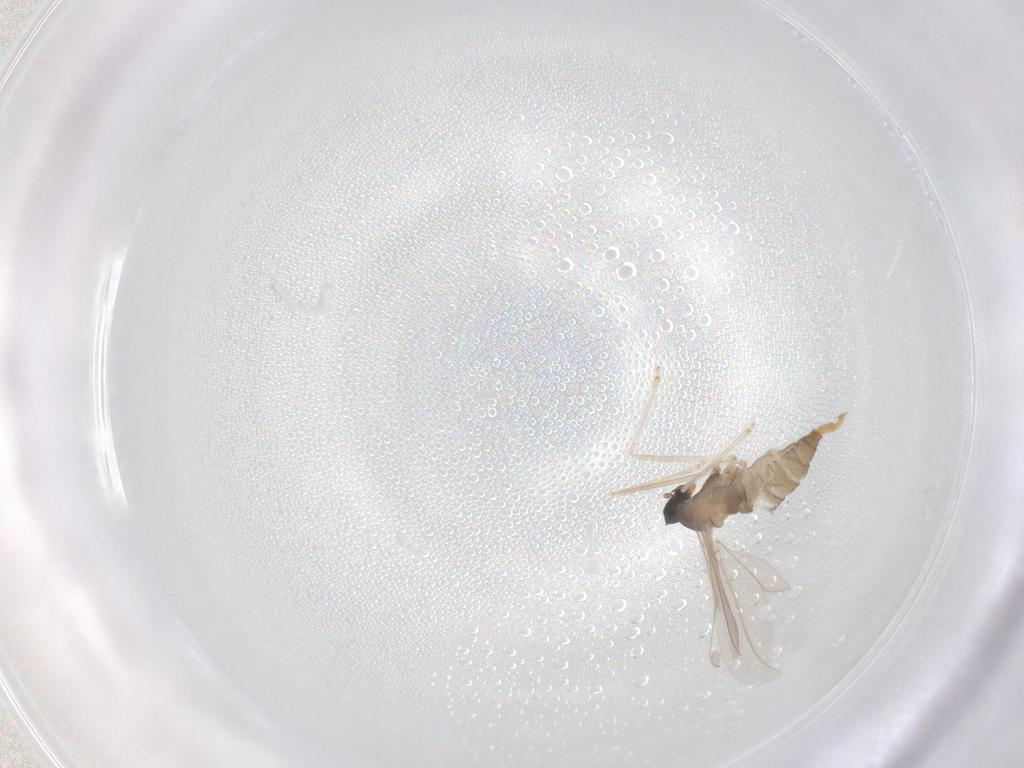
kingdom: Animalia
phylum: Arthropoda
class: Insecta
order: Diptera
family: Cecidomyiidae
